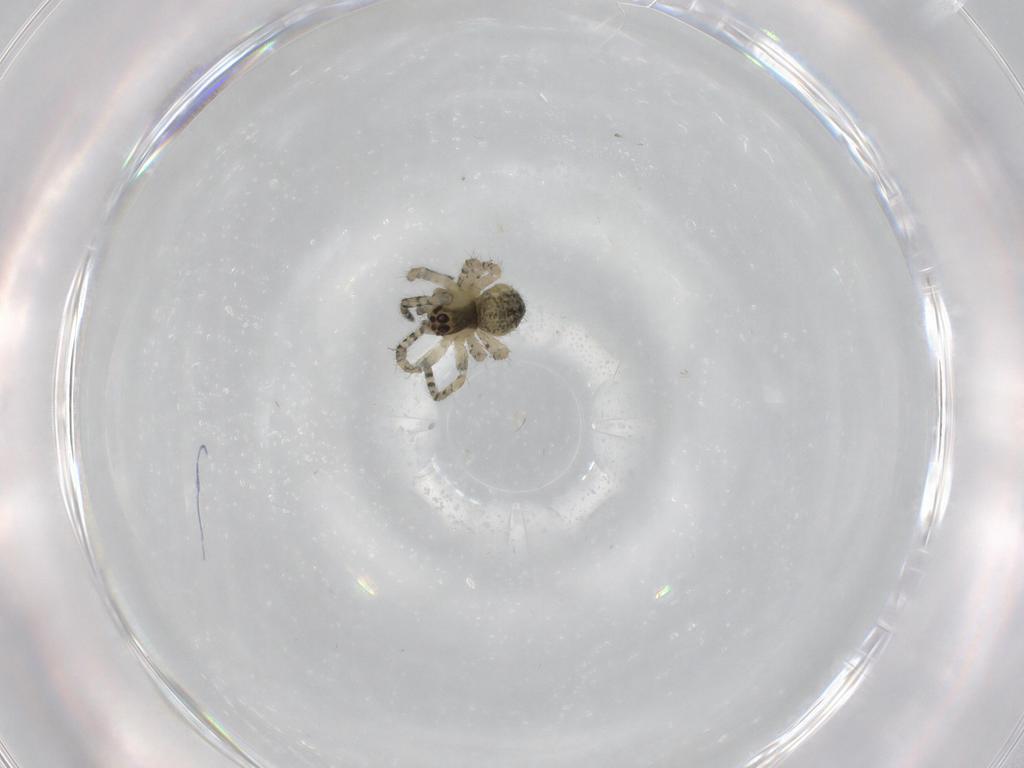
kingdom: Animalia
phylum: Arthropoda
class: Arachnida
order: Araneae
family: Araneidae
